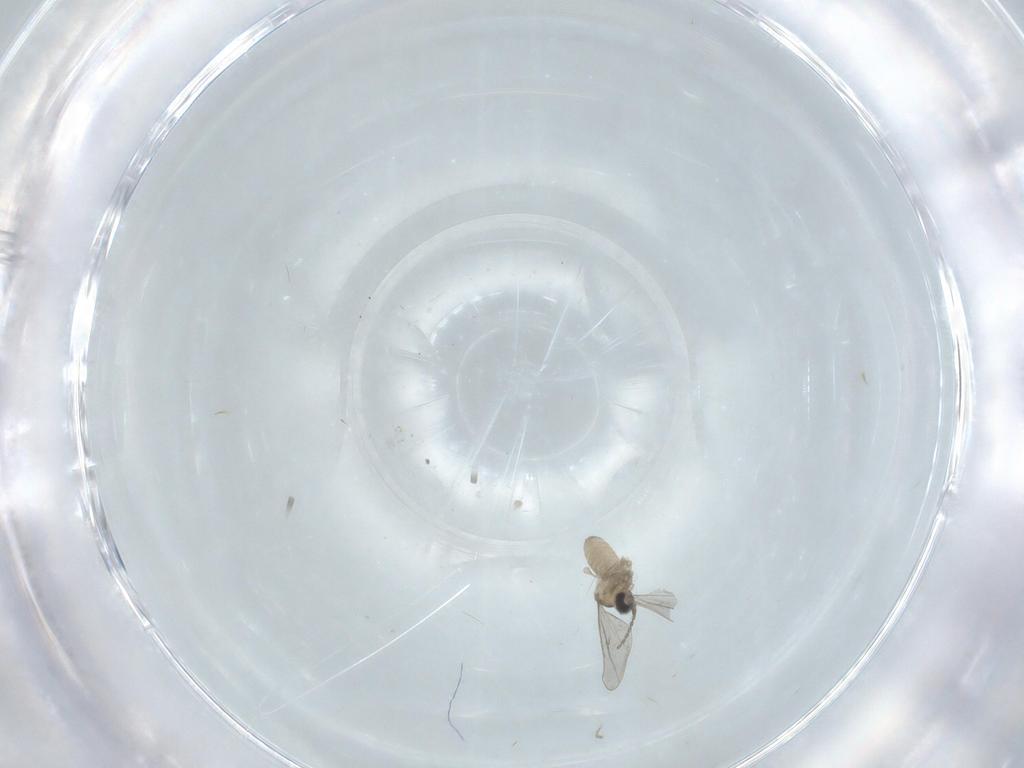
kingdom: Animalia
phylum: Arthropoda
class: Insecta
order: Diptera
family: Cecidomyiidae
